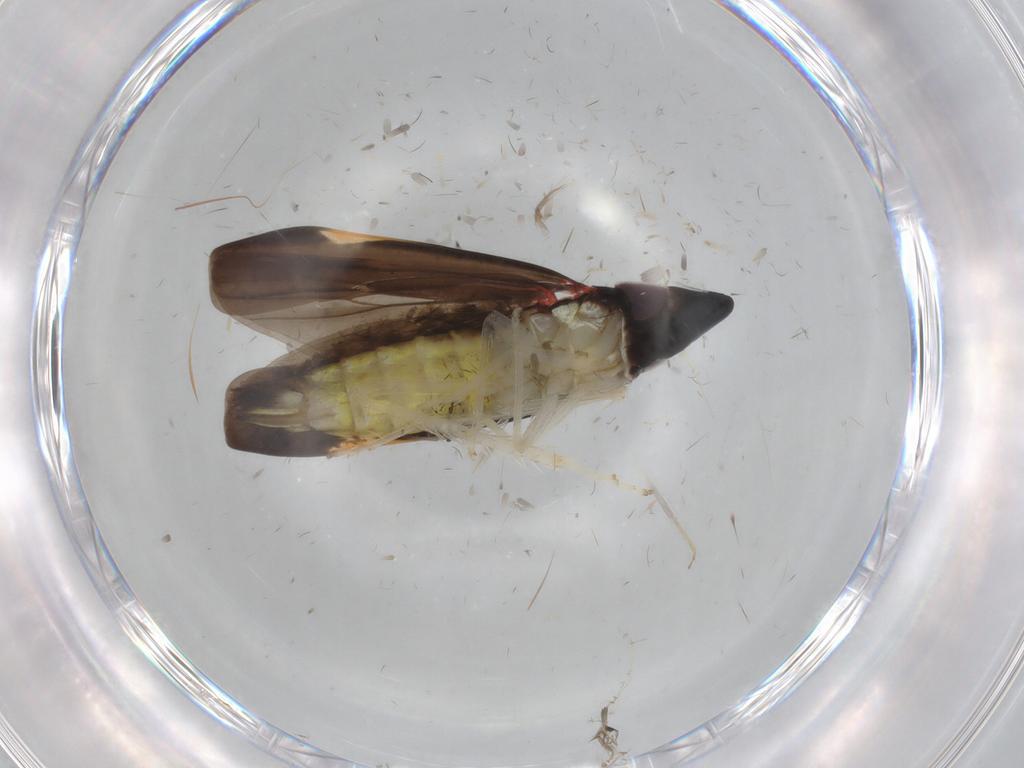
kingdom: Animalia
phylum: Arthropoda
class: Insecta
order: Hemiptera
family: Cicadellidae
